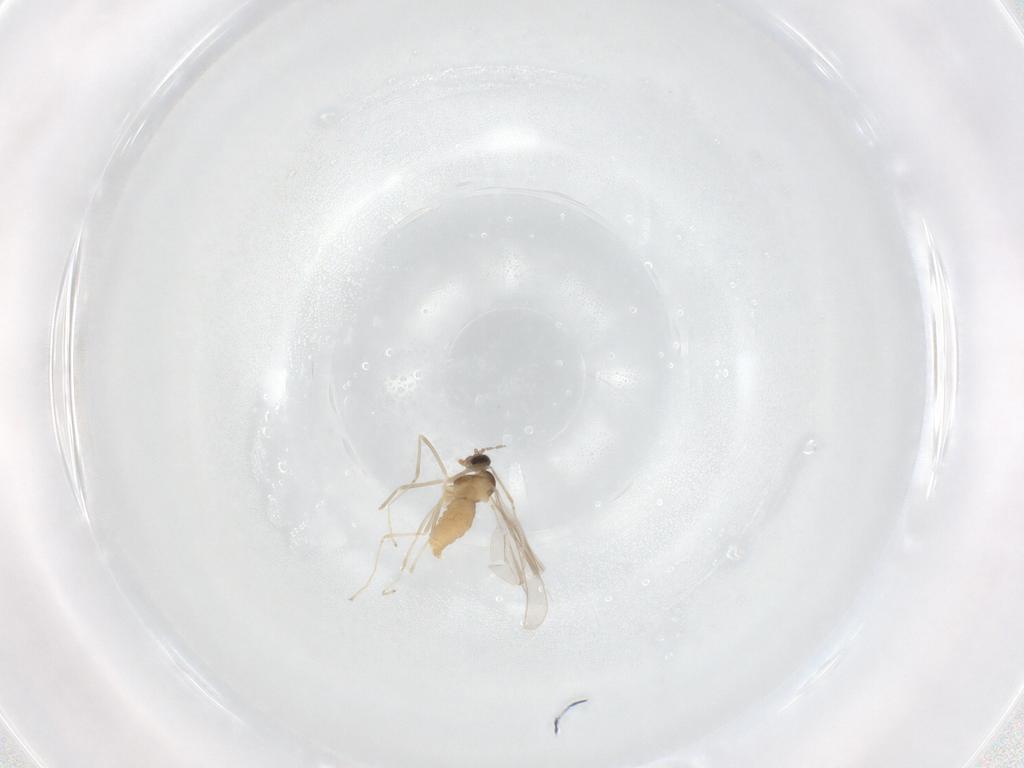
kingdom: Animalia
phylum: Arthropoda
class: Insecta
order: Diptera
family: Cecidomyiidae
